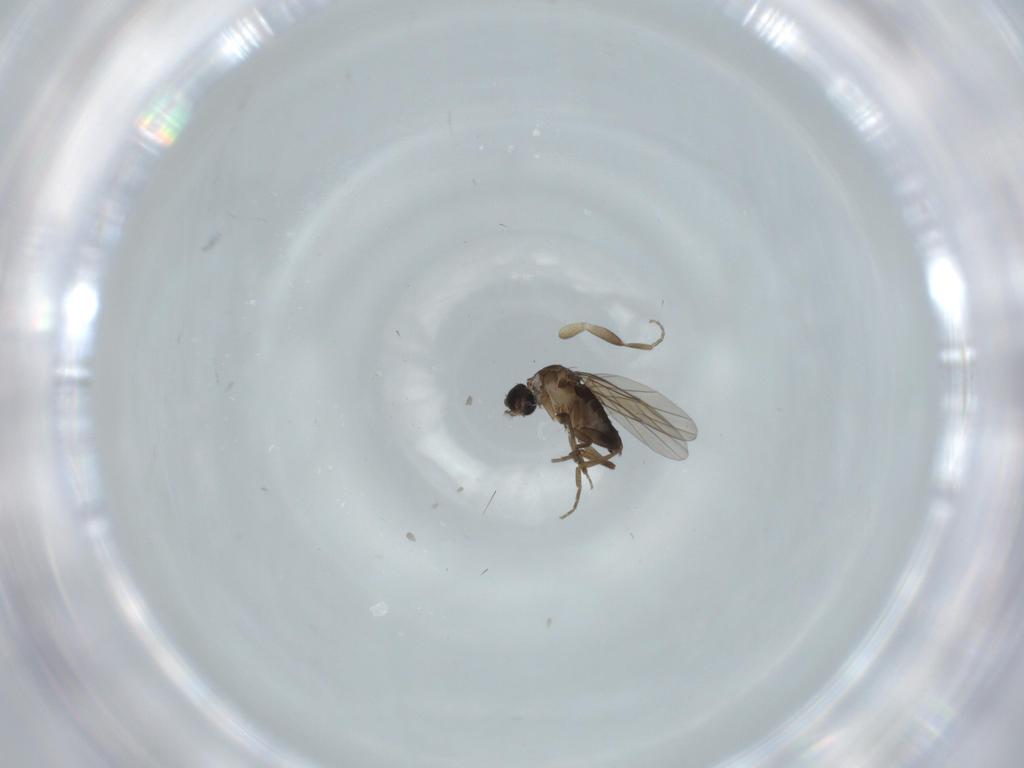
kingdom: Animalia
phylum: Arthropoda
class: Insecta
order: Diptera
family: Phoridae
